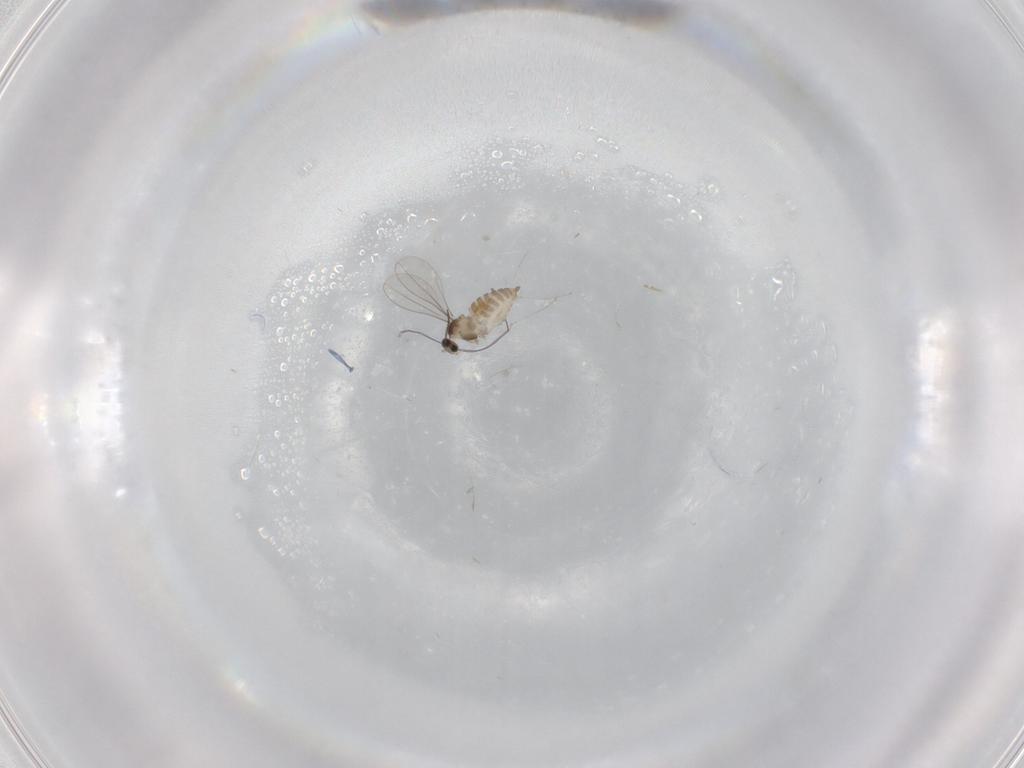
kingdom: Animalia
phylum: Arthropoda
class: Insecta
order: Diptera
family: Cecidomyiidae
